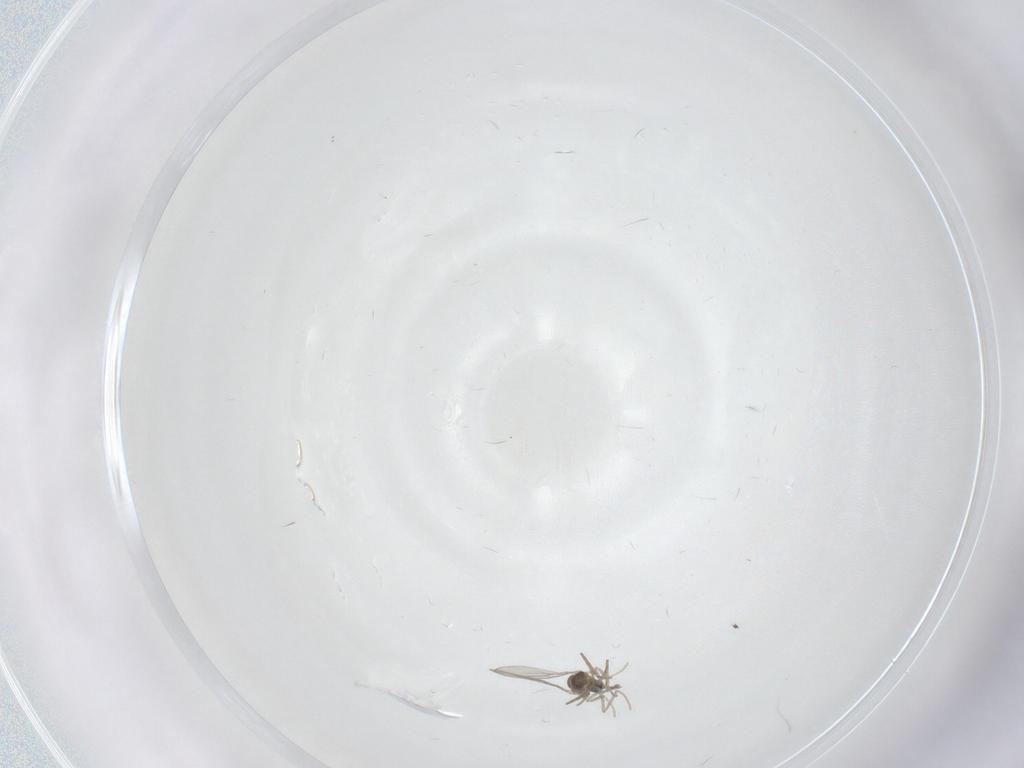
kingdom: Animalia
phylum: Arthropoda
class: Insecta
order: Diptera
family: Cecidomyiidae
